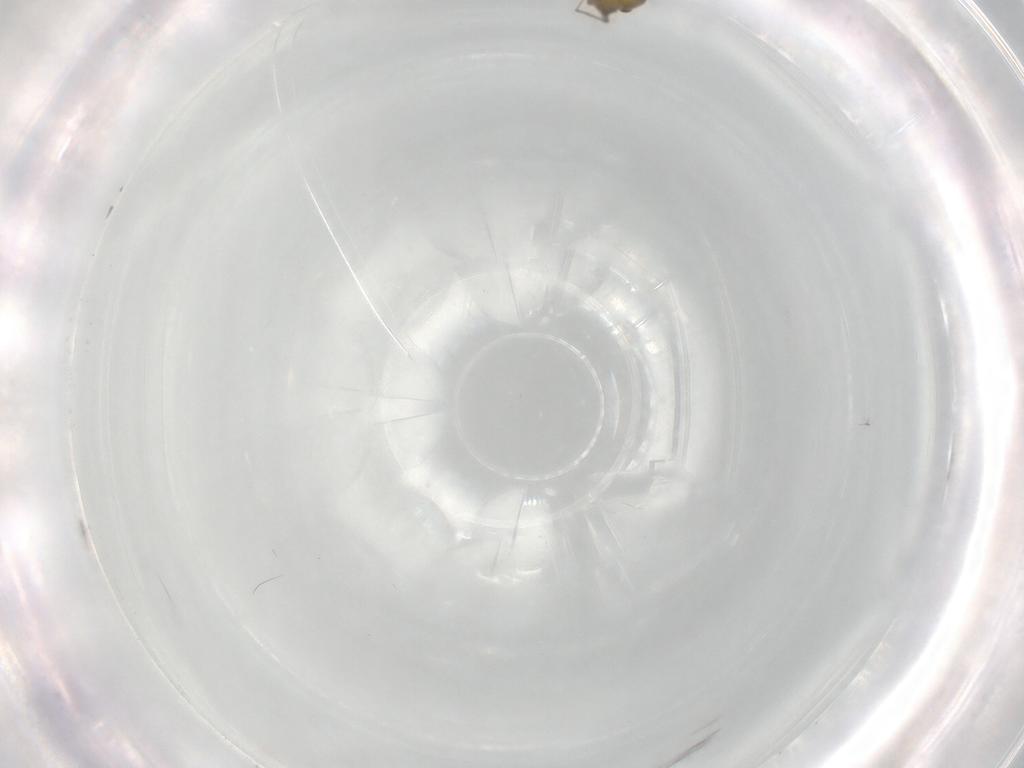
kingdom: Animalia
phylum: Arthropoda
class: Insecta
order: Diptera
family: Chironomidae
